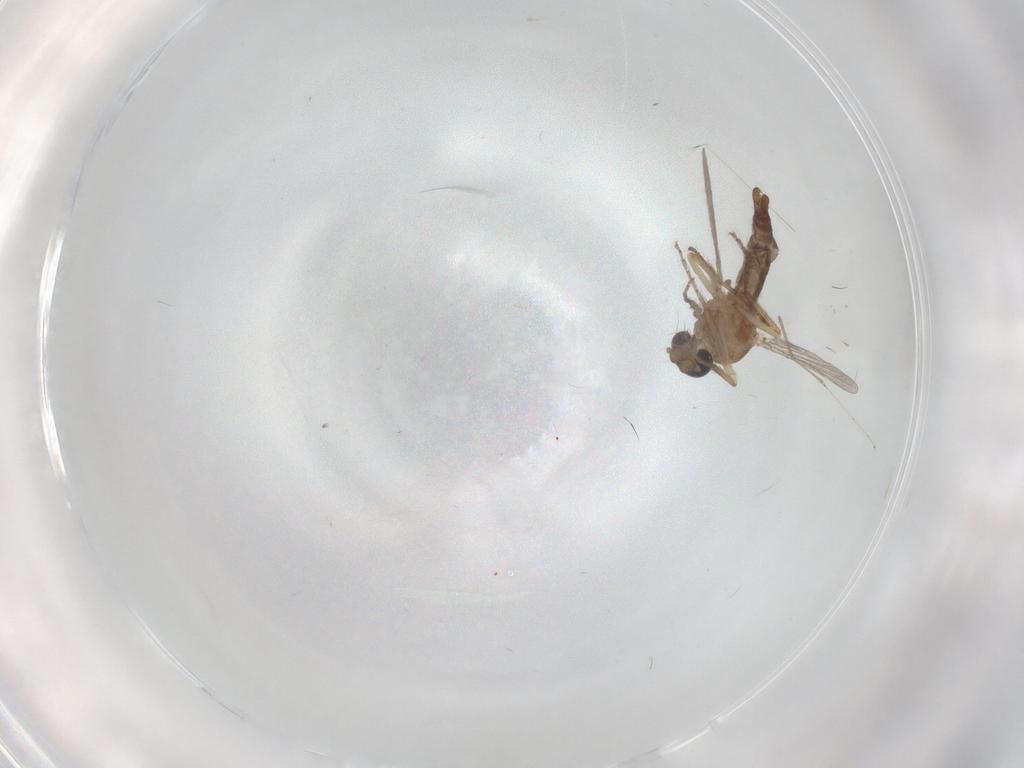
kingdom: Animalia
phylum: Arthropoda
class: Insecta
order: Diptera
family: Ceratopogonidae
